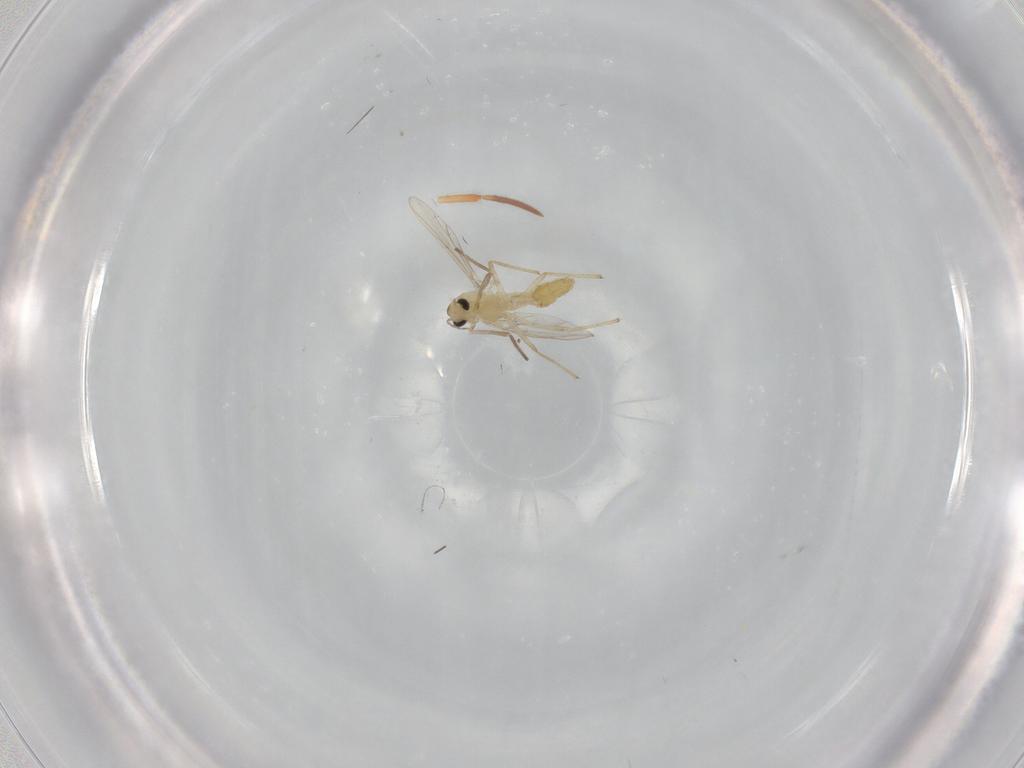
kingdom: Animalia
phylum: Arthropoda
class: Insecta
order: Diptera
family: Chironomidae
